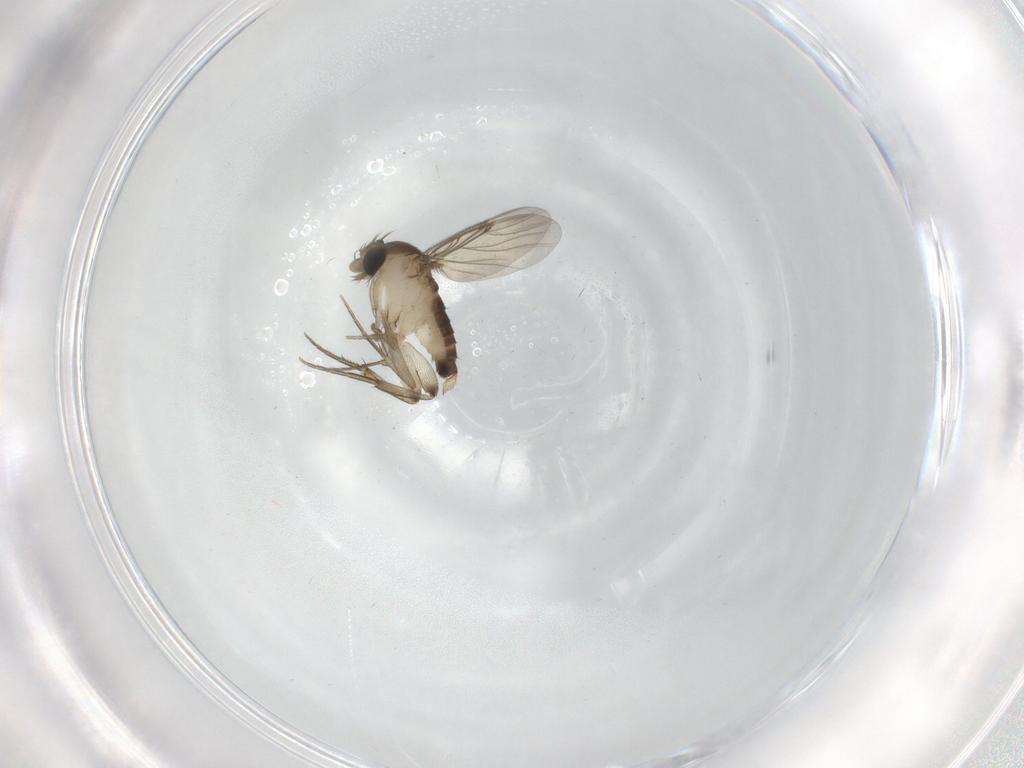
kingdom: Animalia
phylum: Arthropoda
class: Insecta
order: Diptera
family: Phoridae
